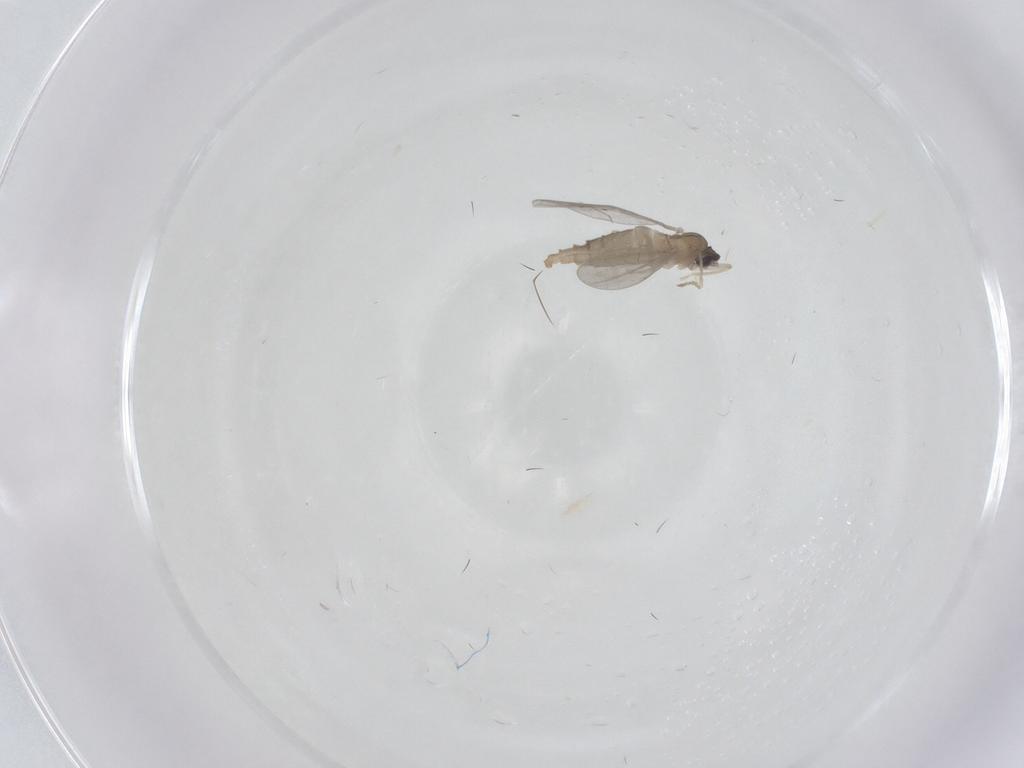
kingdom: Animalia
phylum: Arthropoda
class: Insecta
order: Diptera
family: Cecidomyiidae
